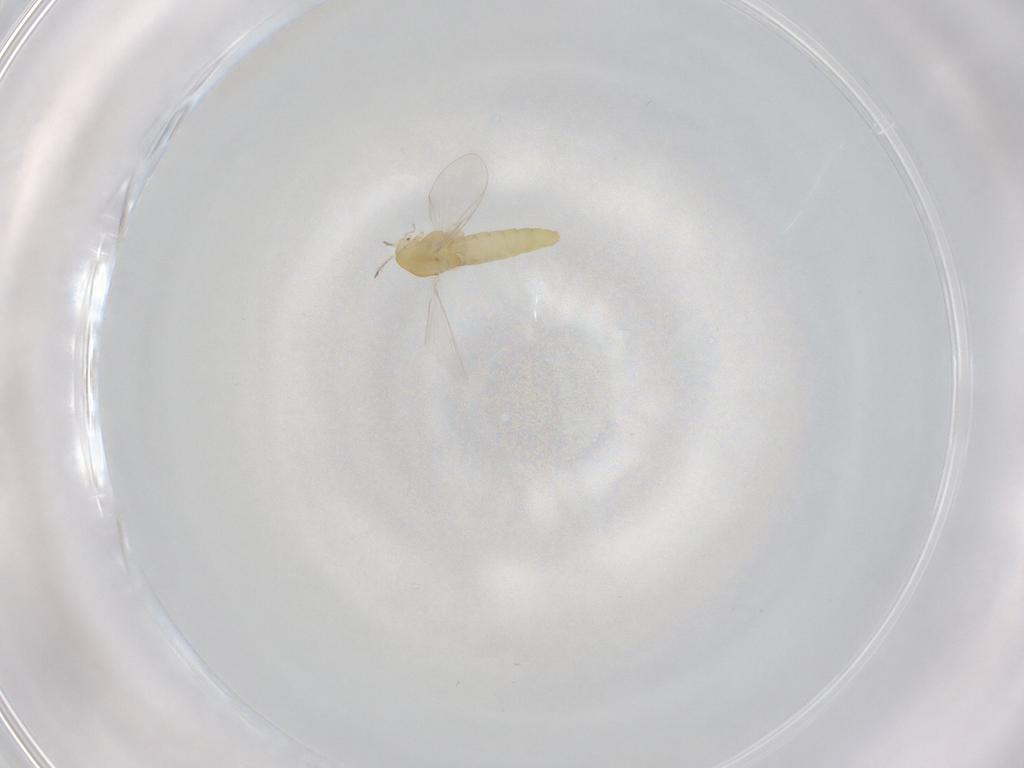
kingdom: Animalia
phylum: Arthropoda
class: Insecta
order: Diptera
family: Chironomidae
